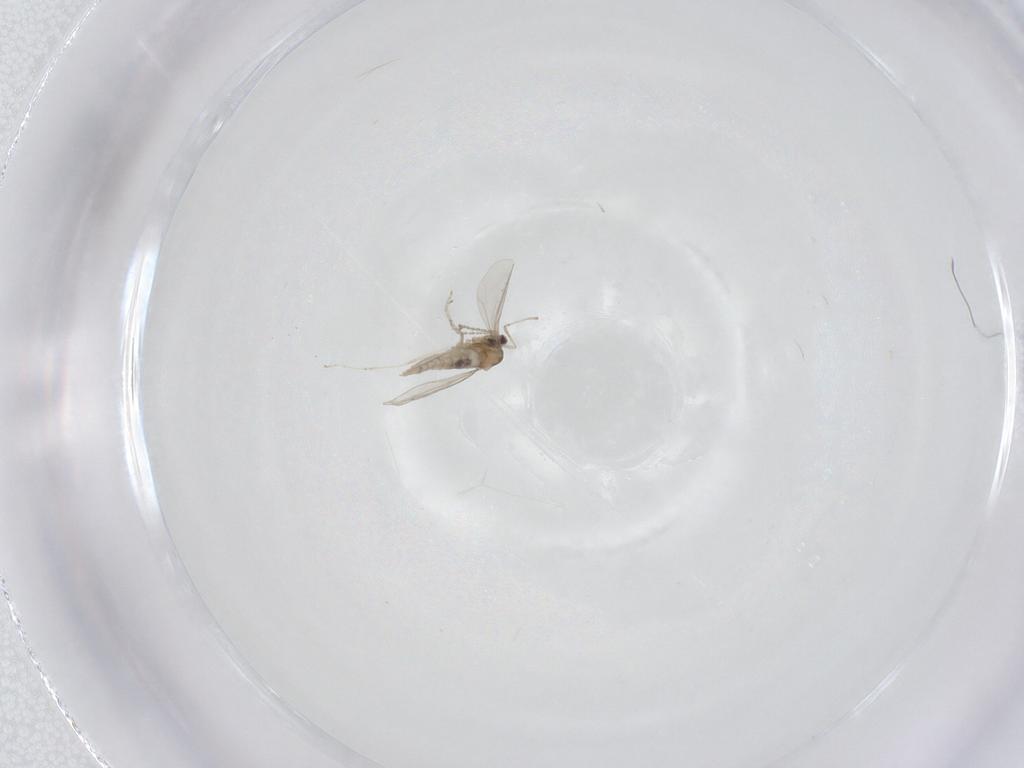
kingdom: Animalia
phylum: Arthropoda
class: Insecta
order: Diptera
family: Cecidomyiidae
